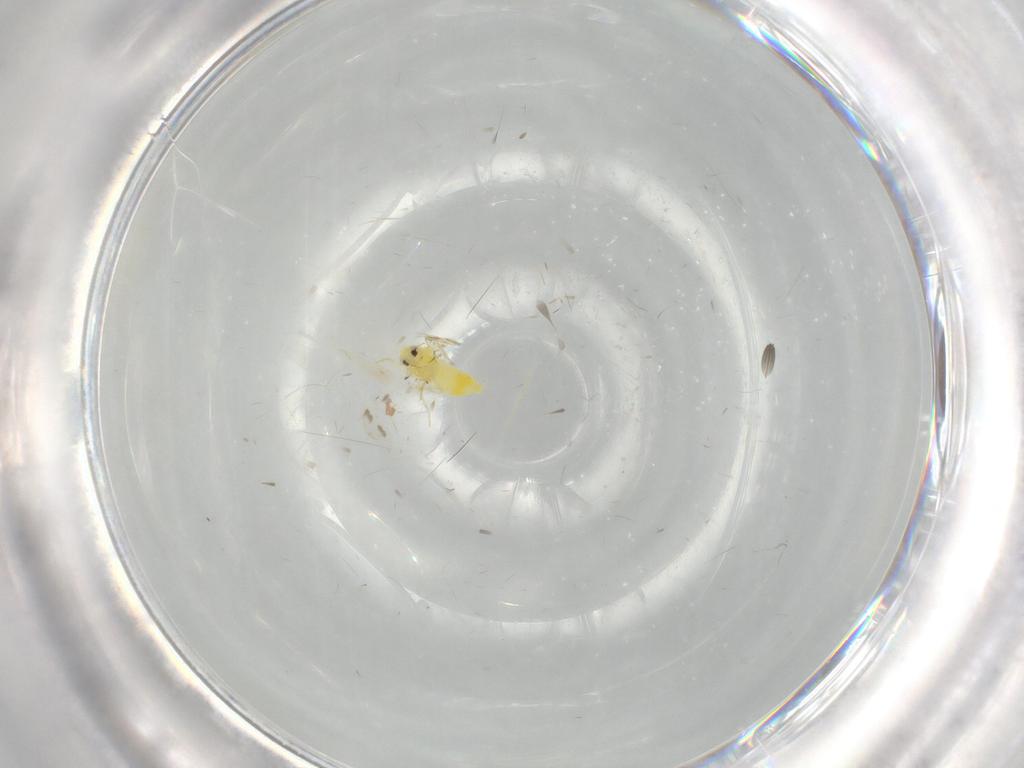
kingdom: Animalia
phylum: Arthropoda
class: Insecta
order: Hemiptera
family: Aleyrodidae
